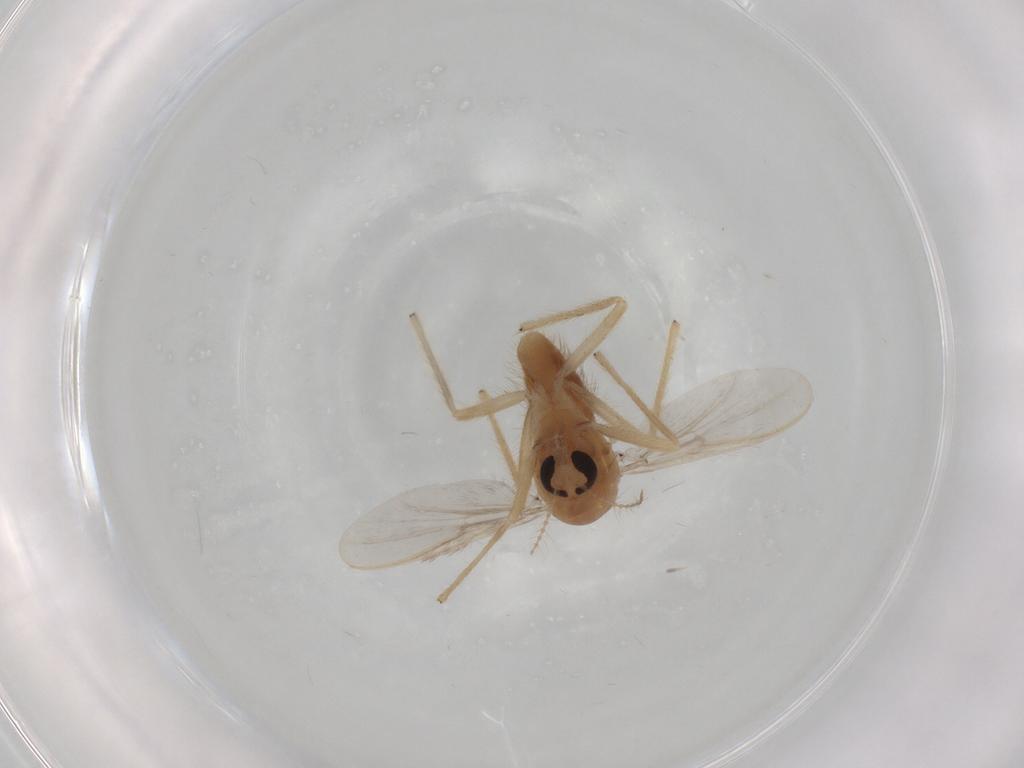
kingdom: Animalia
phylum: Arthropoda
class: Insecta
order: Diptera
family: Chironomidae
